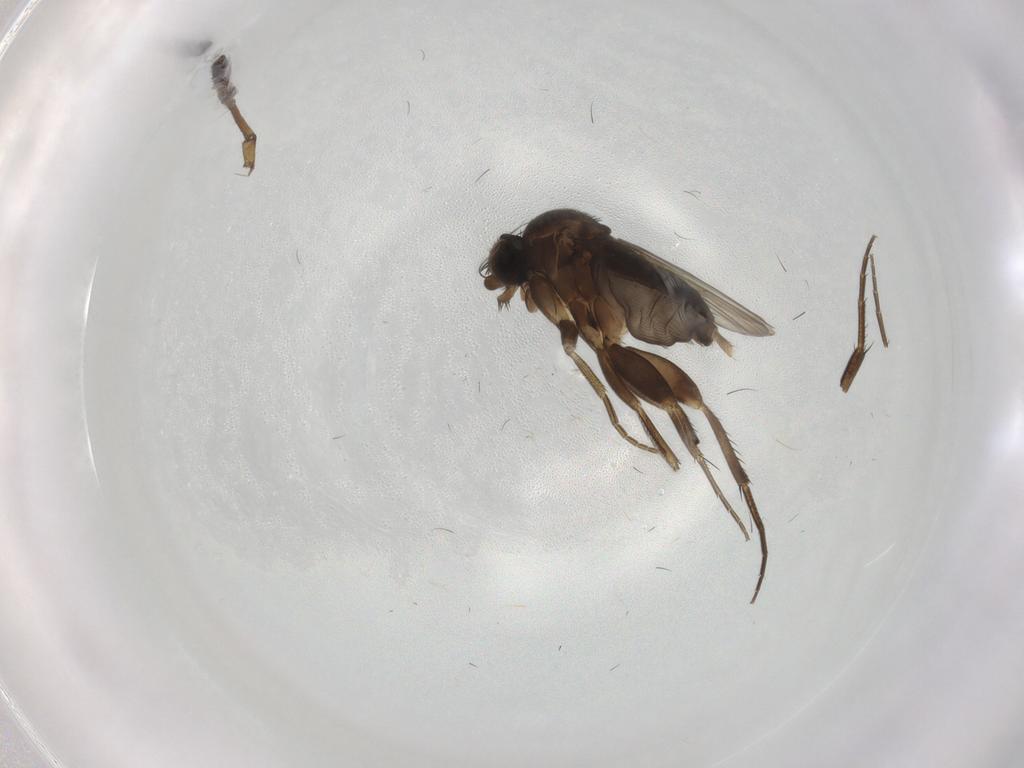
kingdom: Animalia
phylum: Arthropoda
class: Insecta
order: Diptera
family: Phoridae
